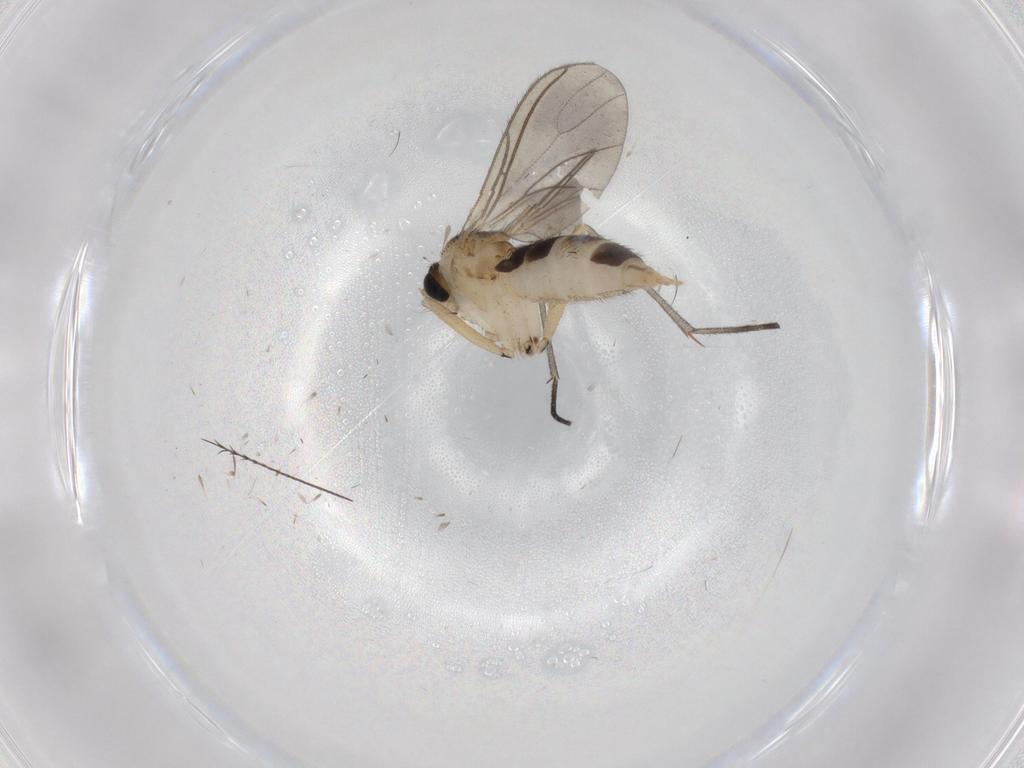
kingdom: Animalia
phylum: Arthropoda
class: Insecta
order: Diptera
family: Sciaridae
